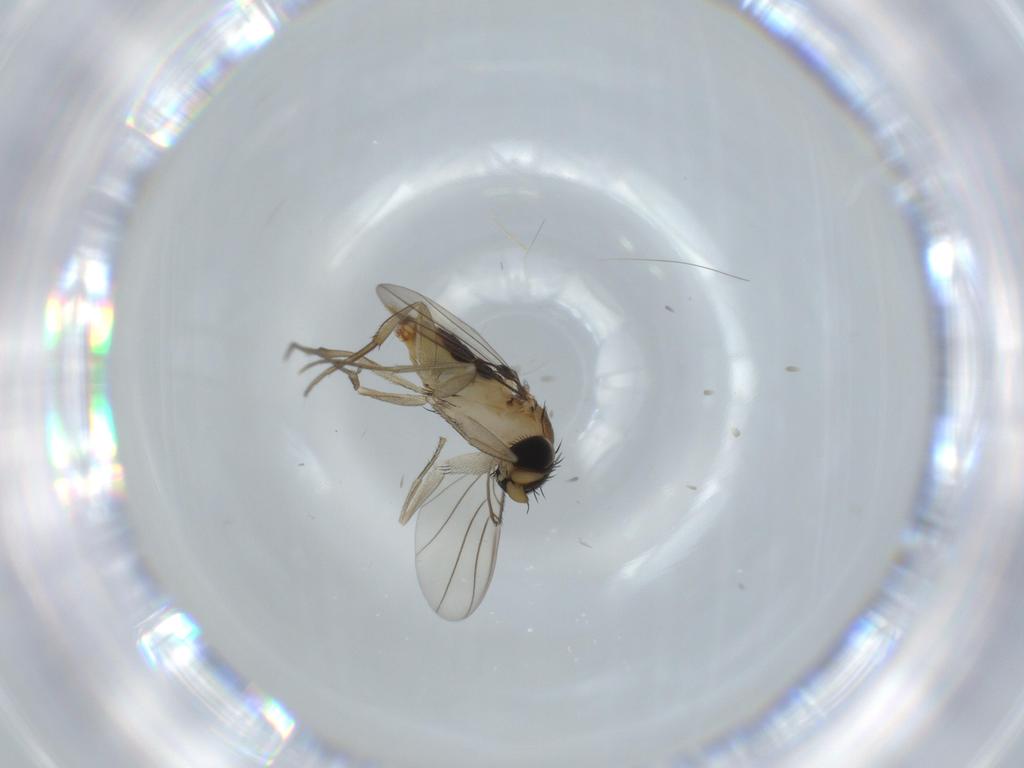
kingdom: Animalia
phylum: Arthropoda
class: Insecta
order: Diptera
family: Phoridae
